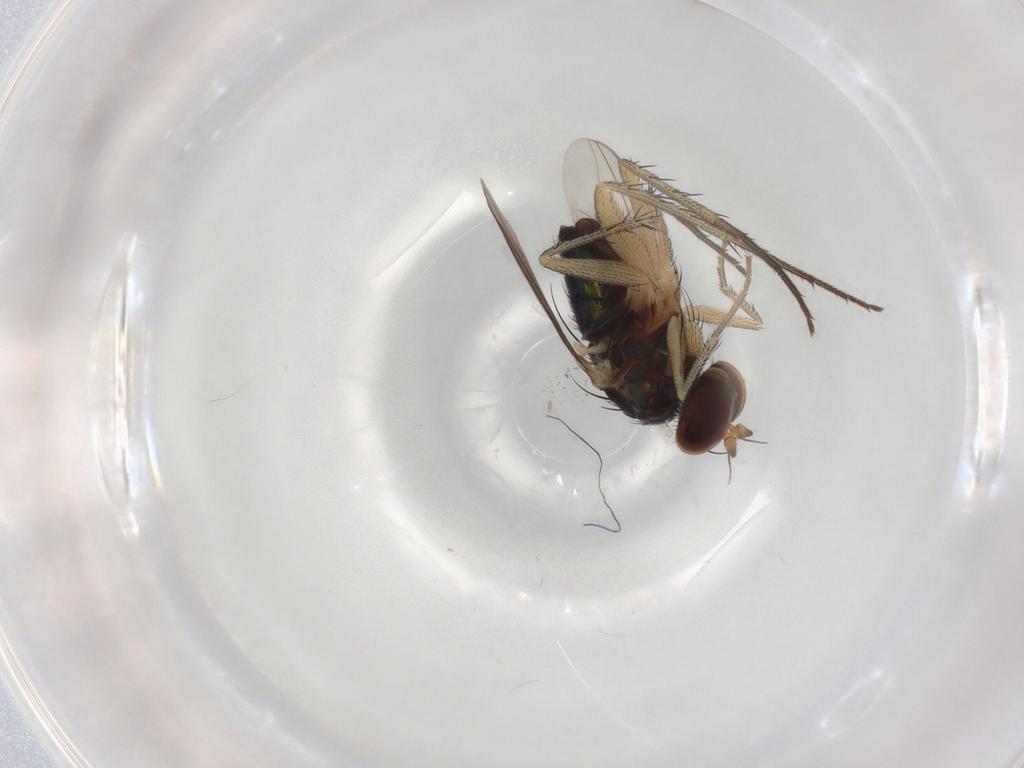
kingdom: Animalia
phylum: Arthropoda
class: Insecta
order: Diptera
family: Dolichopodidae
